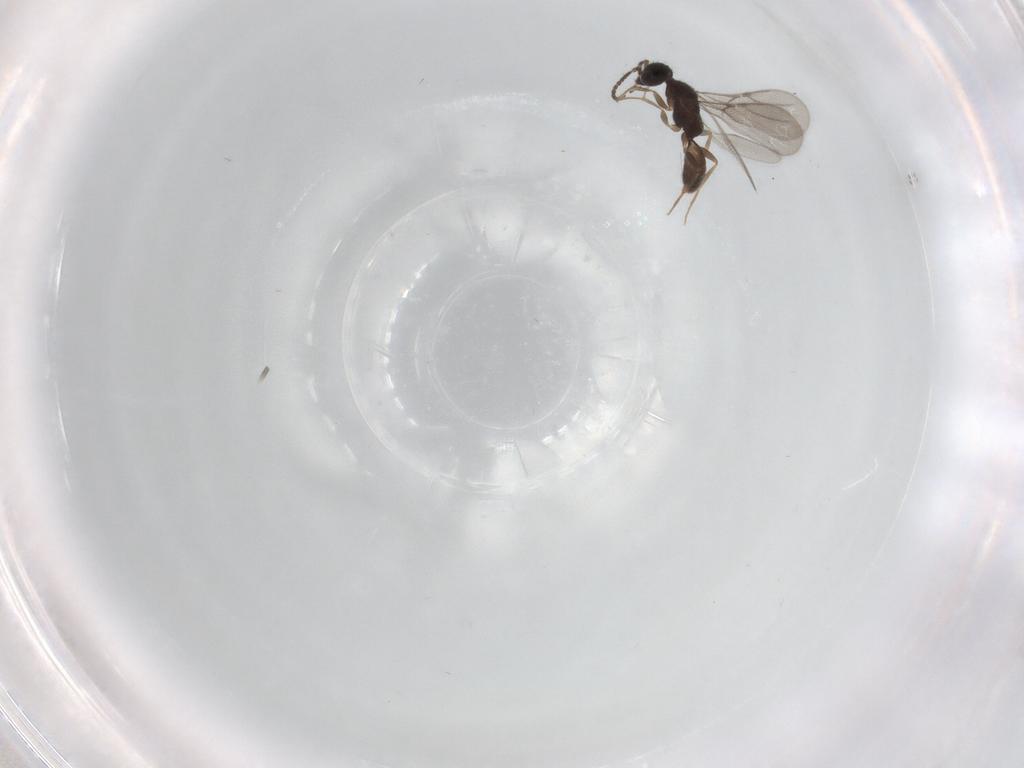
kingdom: Animalia
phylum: Arthropoda
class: Insecta
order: Hymenoptera
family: Bethylidae
